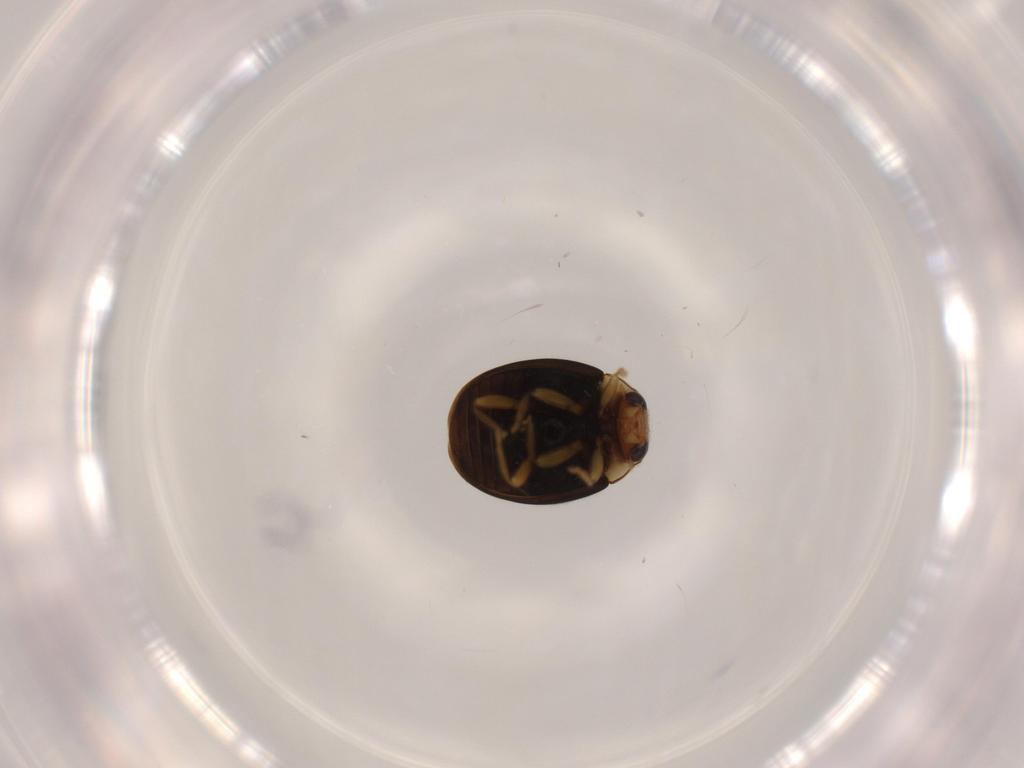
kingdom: Animalia
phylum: Arthropoda
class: Insecta
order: Coleoptera
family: Coccinellidae
